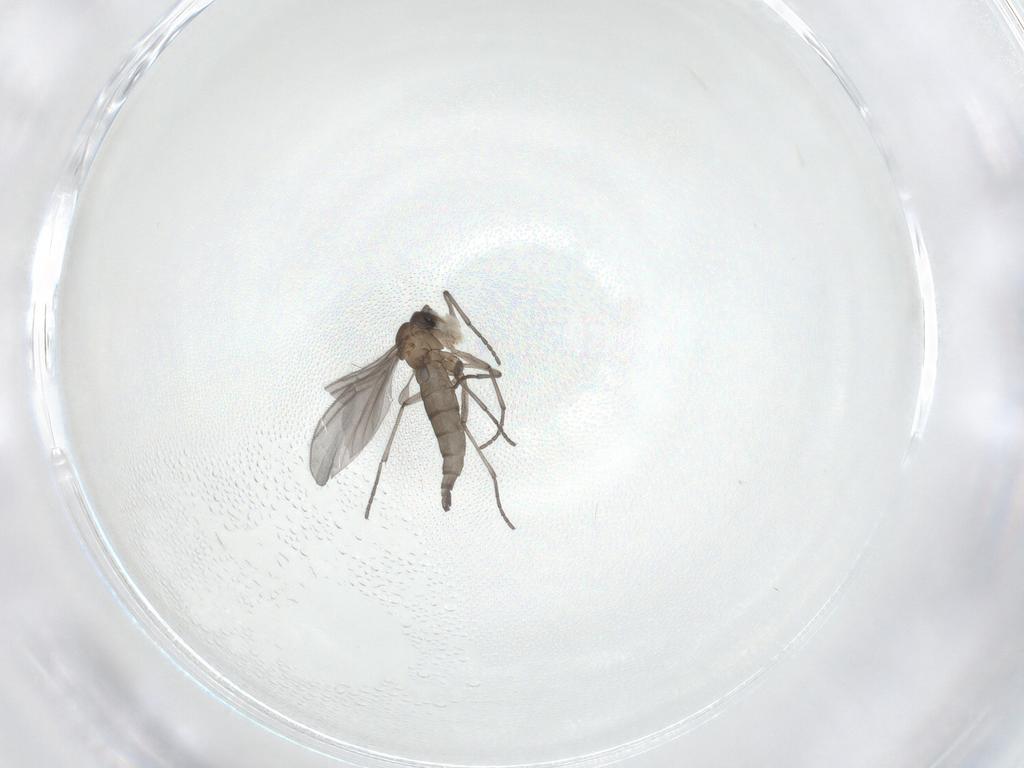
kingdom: Animalia
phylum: Arthropoda
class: Insecta
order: Diptera
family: Sciaridae
